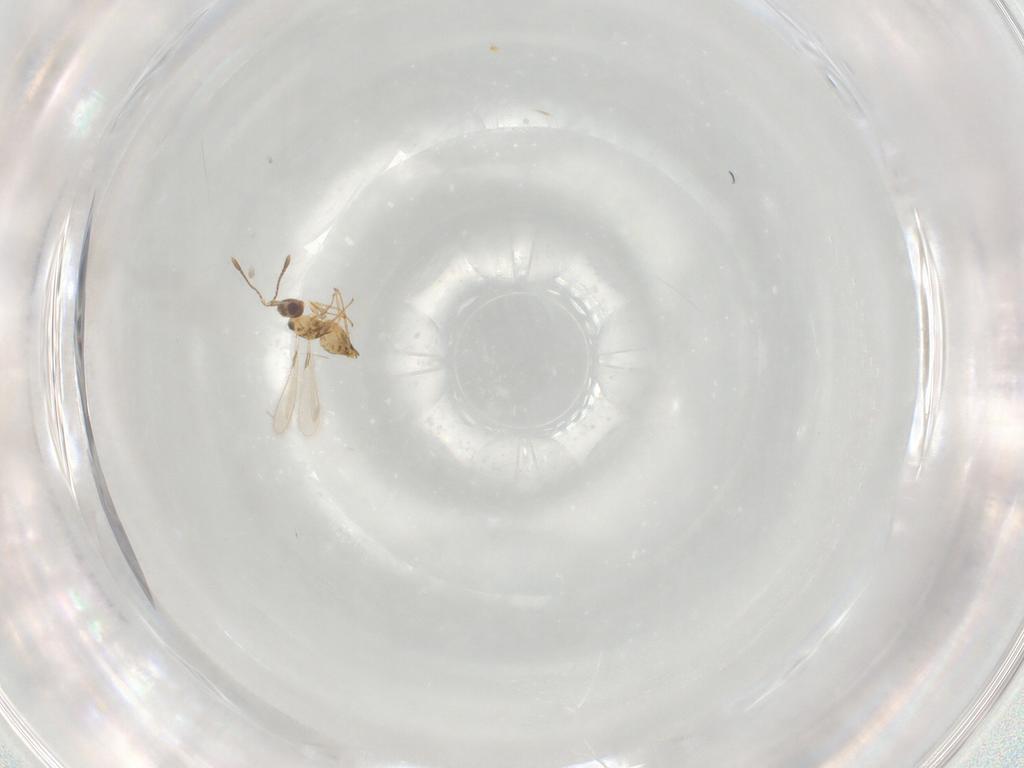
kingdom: Animalia
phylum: Arthropoda
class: Insecta
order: Hymenoptera
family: Mymaridae
